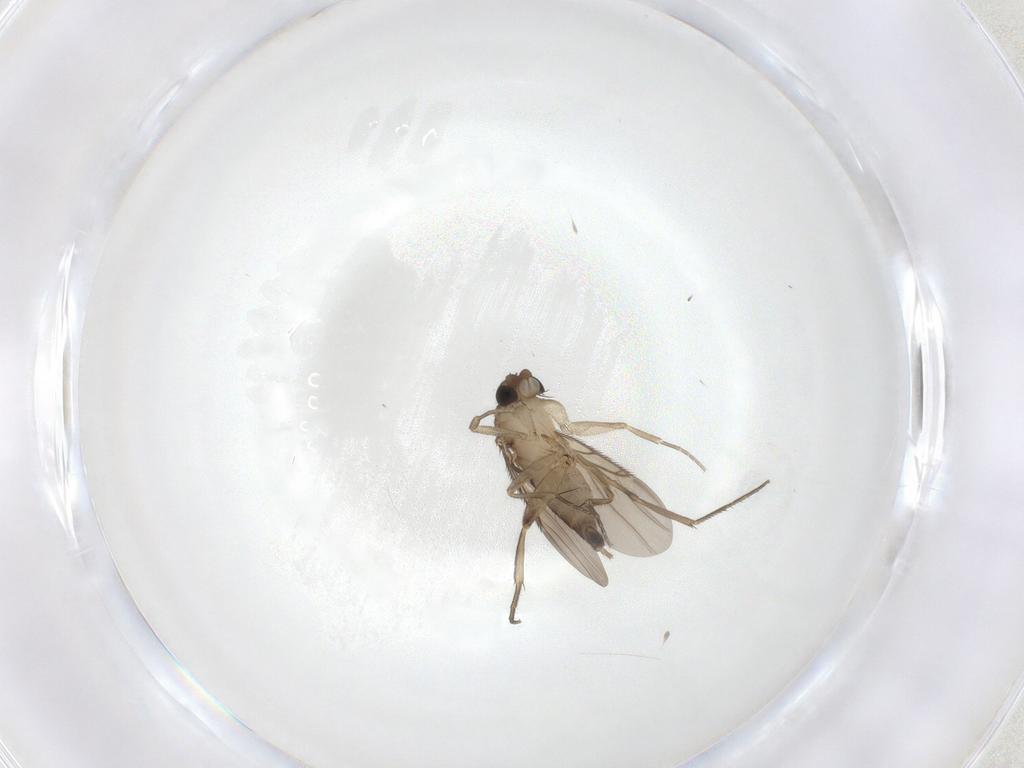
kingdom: Animalia
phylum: Arthropoda
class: Insecta
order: Diptera
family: Phoridae
